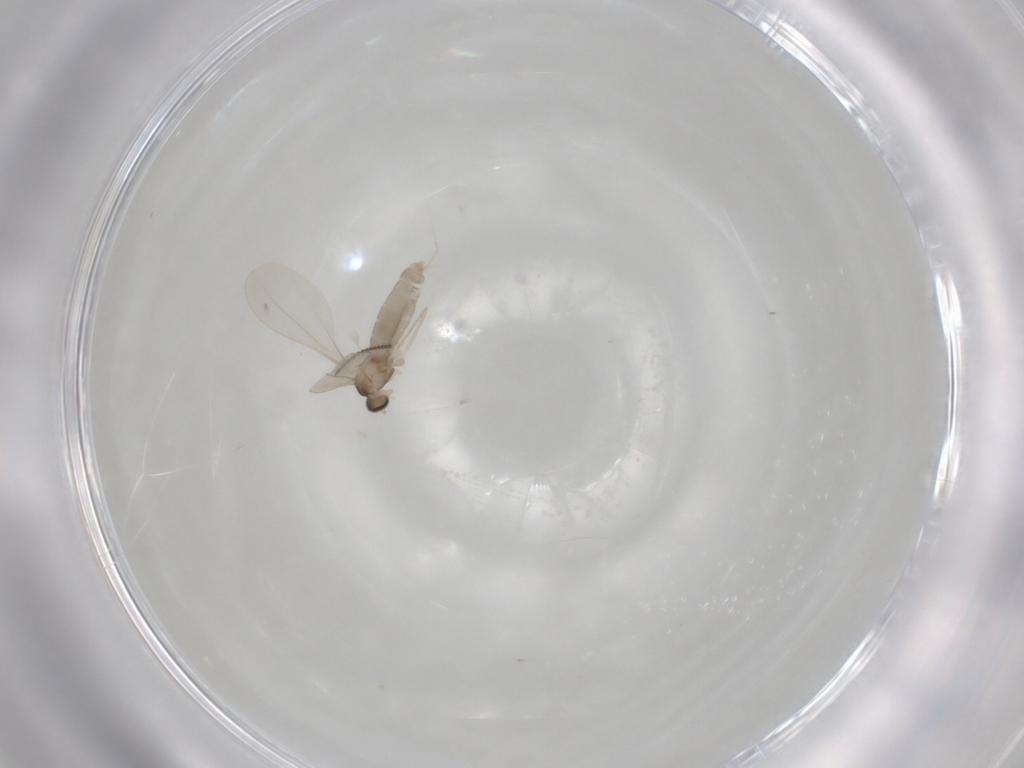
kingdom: Animalia
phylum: Arthropoda
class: Insecta
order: Diptera
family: Cecidomyiidae
